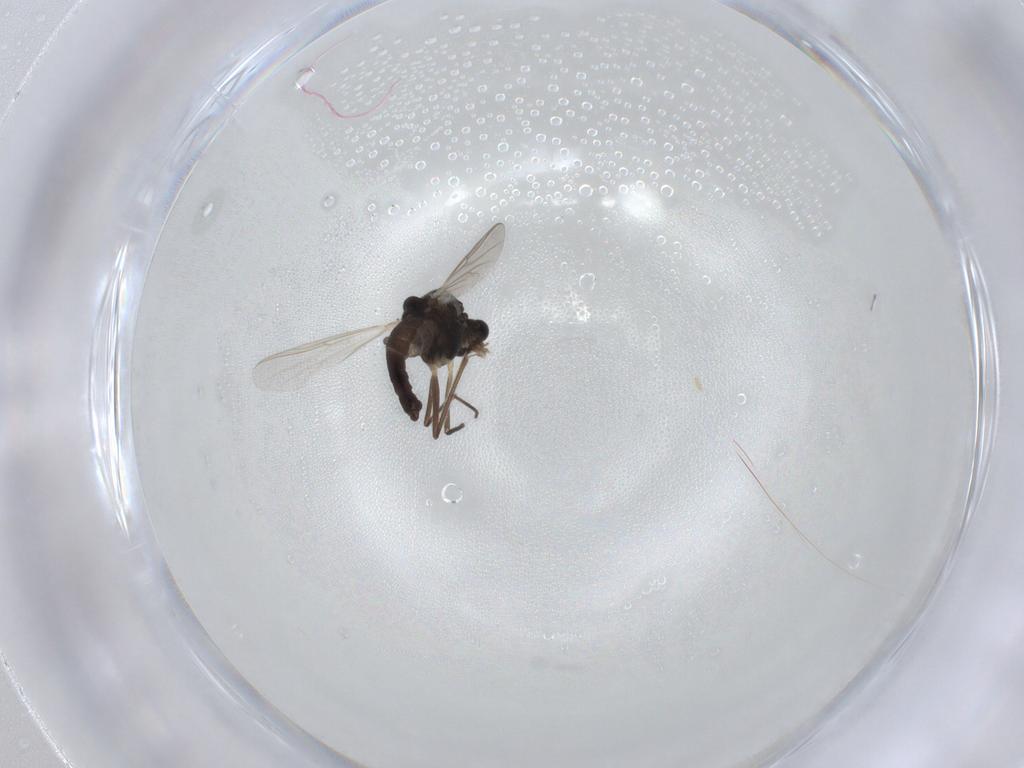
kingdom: Animalia
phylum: Arthropoda
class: Insecta
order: Diptera
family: Chironomidae
